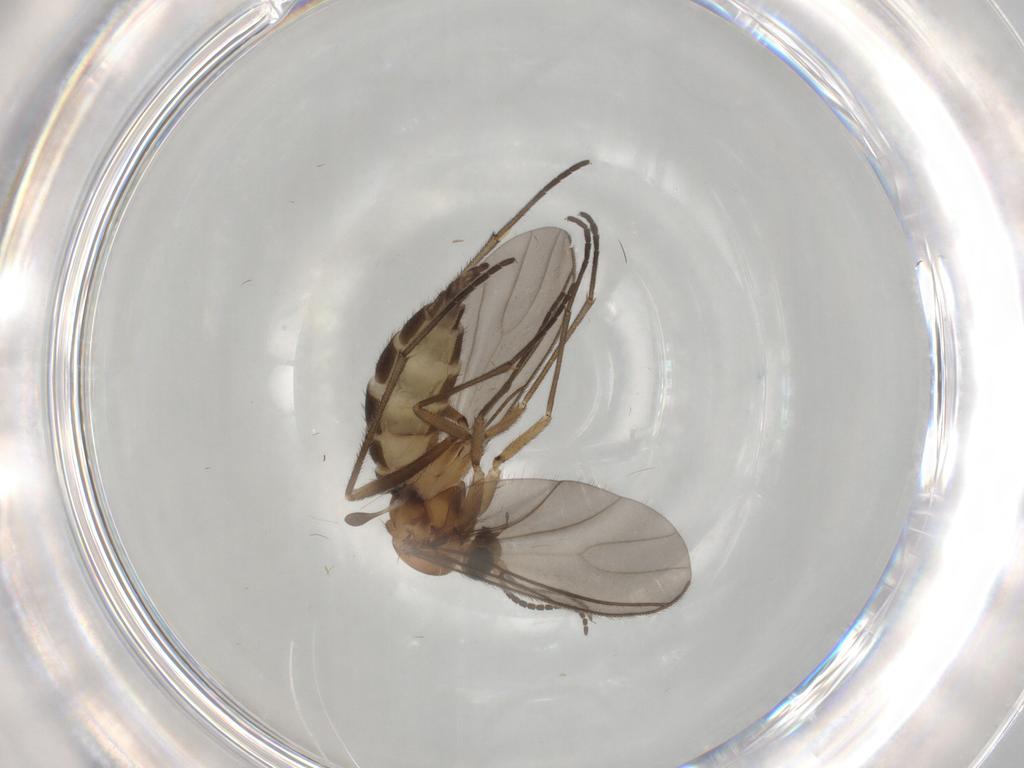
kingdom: Animalia
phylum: Arthropoda
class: Insecta
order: Diptera
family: Sciaridae
